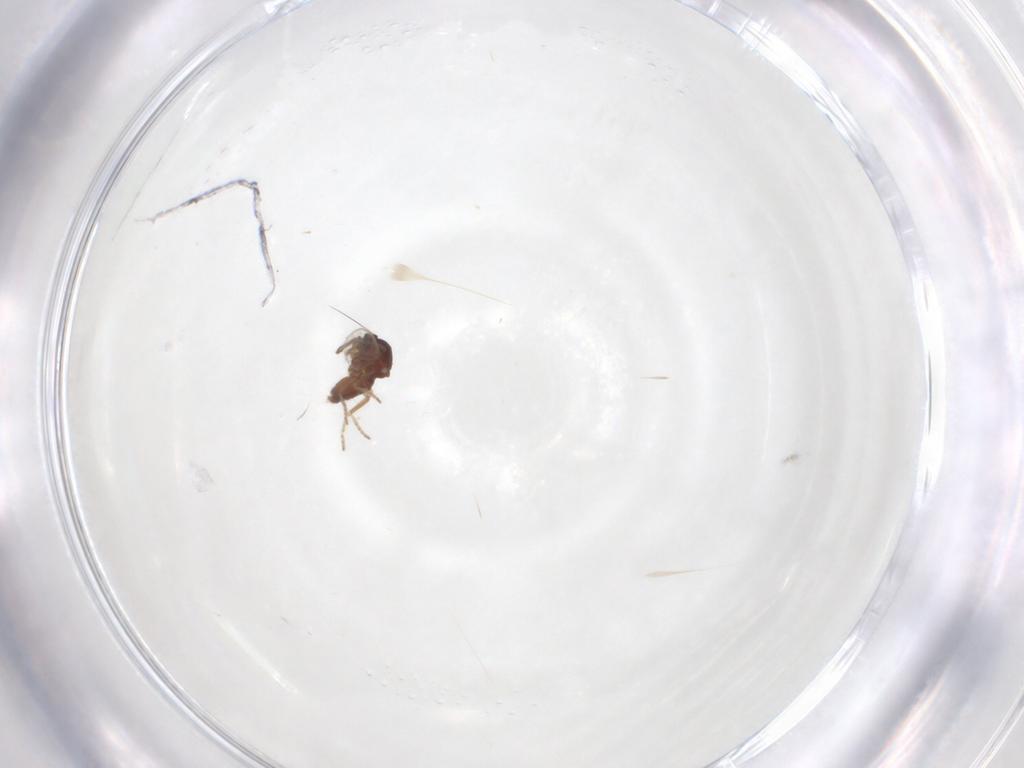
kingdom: Animalia
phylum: Arthropoda
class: Insecta
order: Diptera
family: Ceratopogonidae
